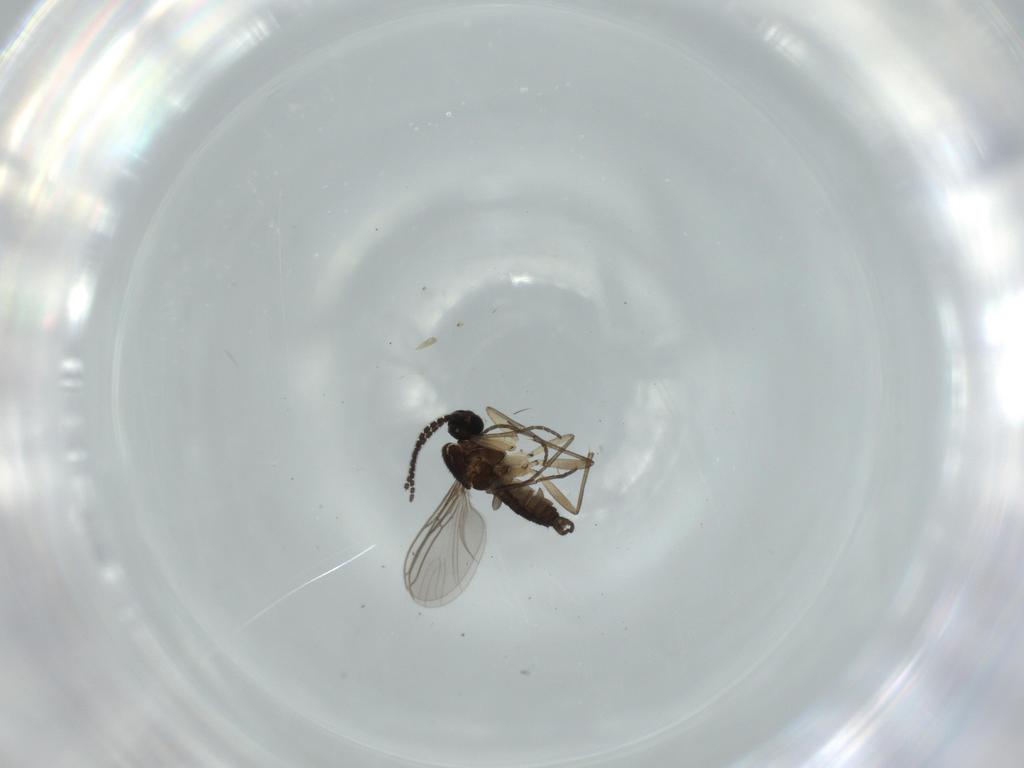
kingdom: Animalia
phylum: Arthropoda
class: Insecta
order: Diptera
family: Sciaridae
